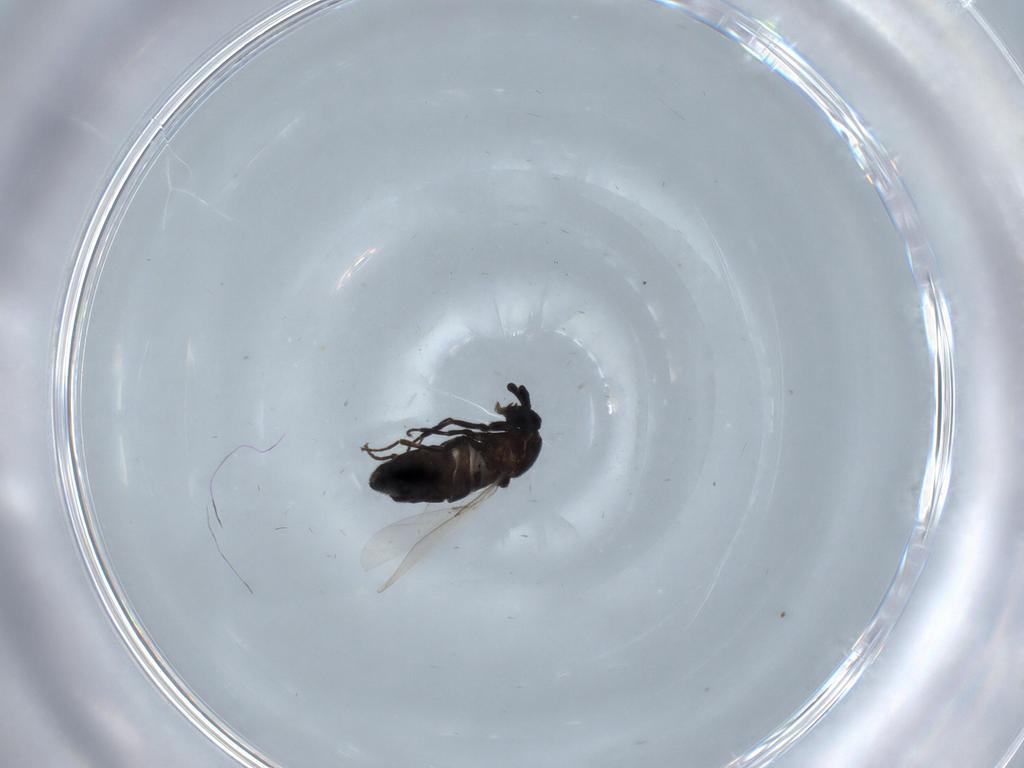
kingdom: Animalia
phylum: Arthropoda
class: Insecta
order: Diptera
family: Scatopsidae
